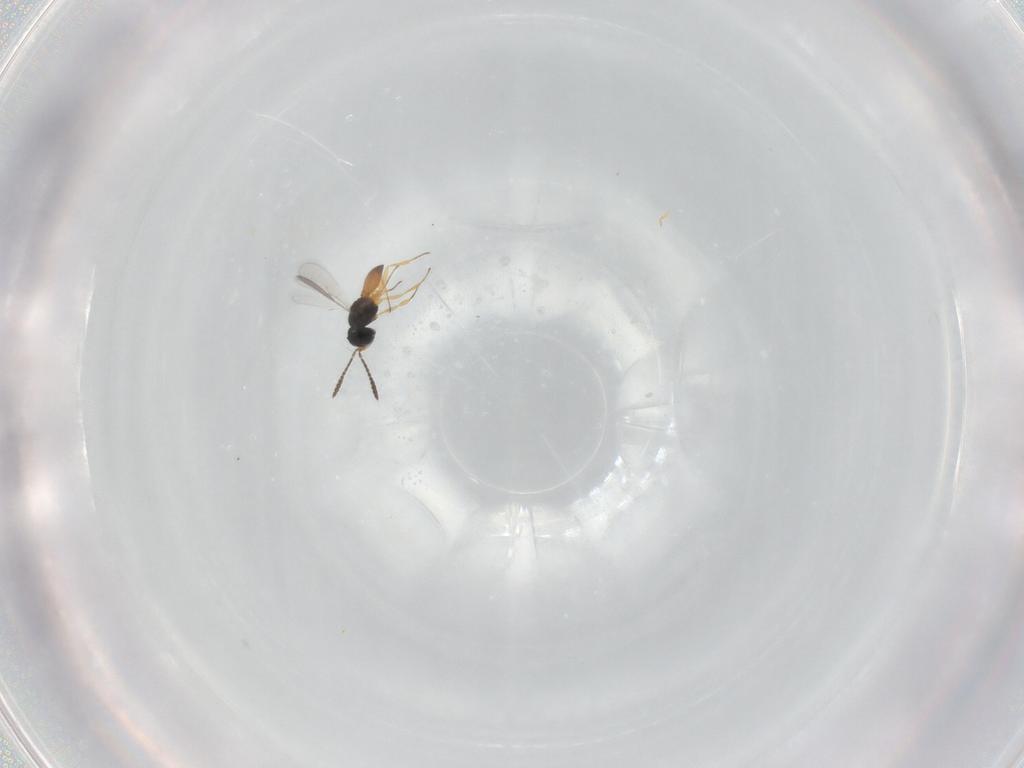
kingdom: Animalia
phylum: Arthropoda
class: Insecta
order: Hymenoptera
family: Scelionidae
